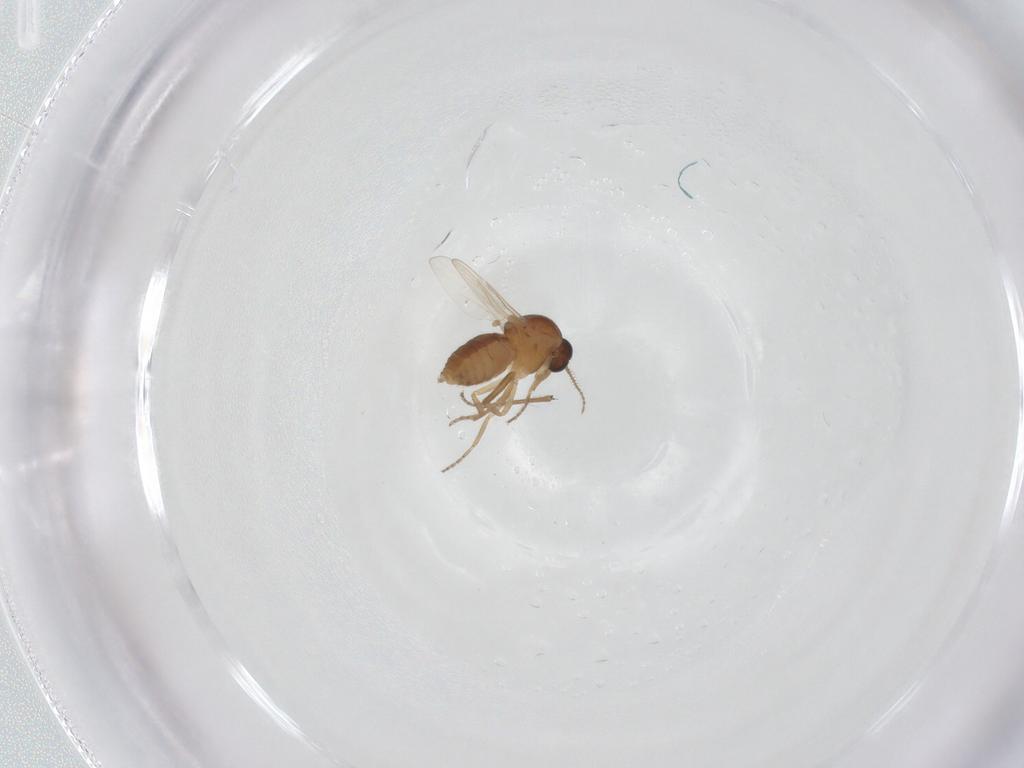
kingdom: Animalia
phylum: Arthropoda
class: Insecta
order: Diptera
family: Ceratopogonidae
